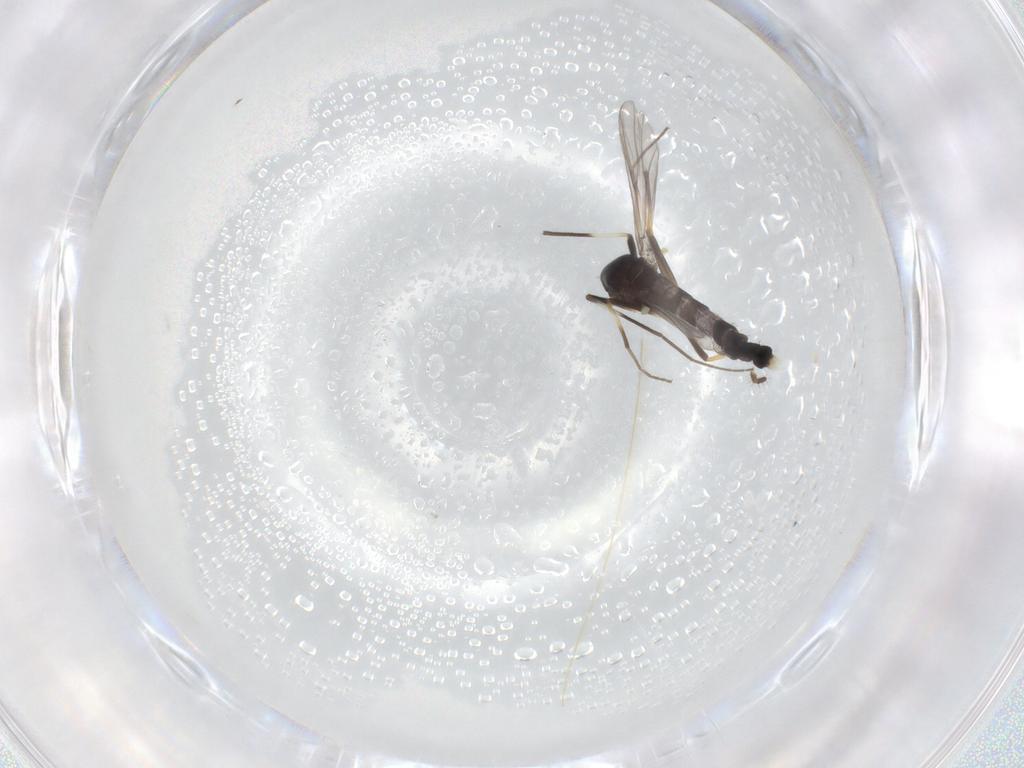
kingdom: Animalia
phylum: Arthropoda
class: Insecta
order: Diptera
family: Chironomidae
